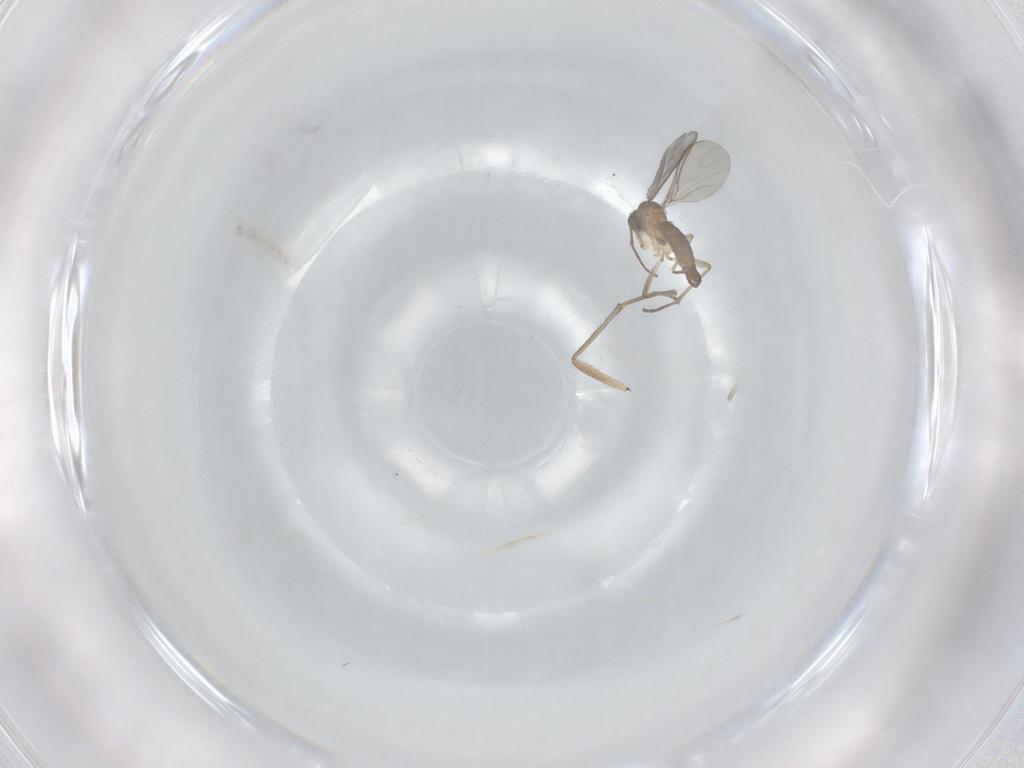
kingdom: Animalia
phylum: Arthropoda
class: Insecta
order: Diptera
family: Sciaridae
